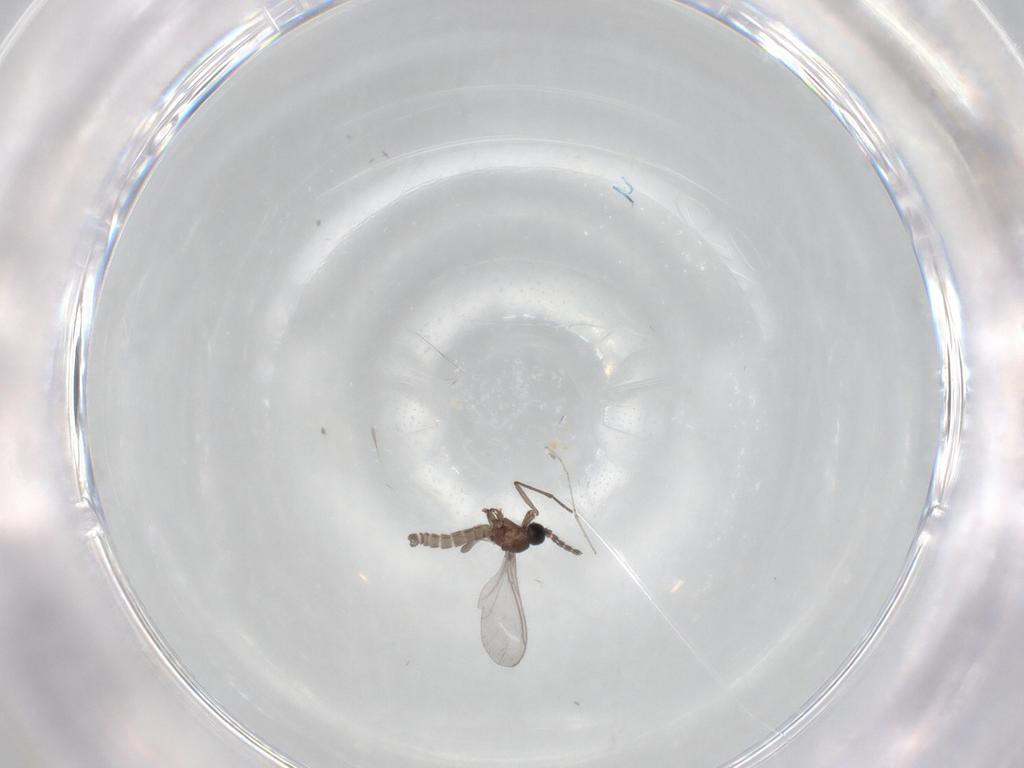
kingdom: Animalia
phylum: Arthropoda
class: Insecta
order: Diptera
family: Sciaridae
